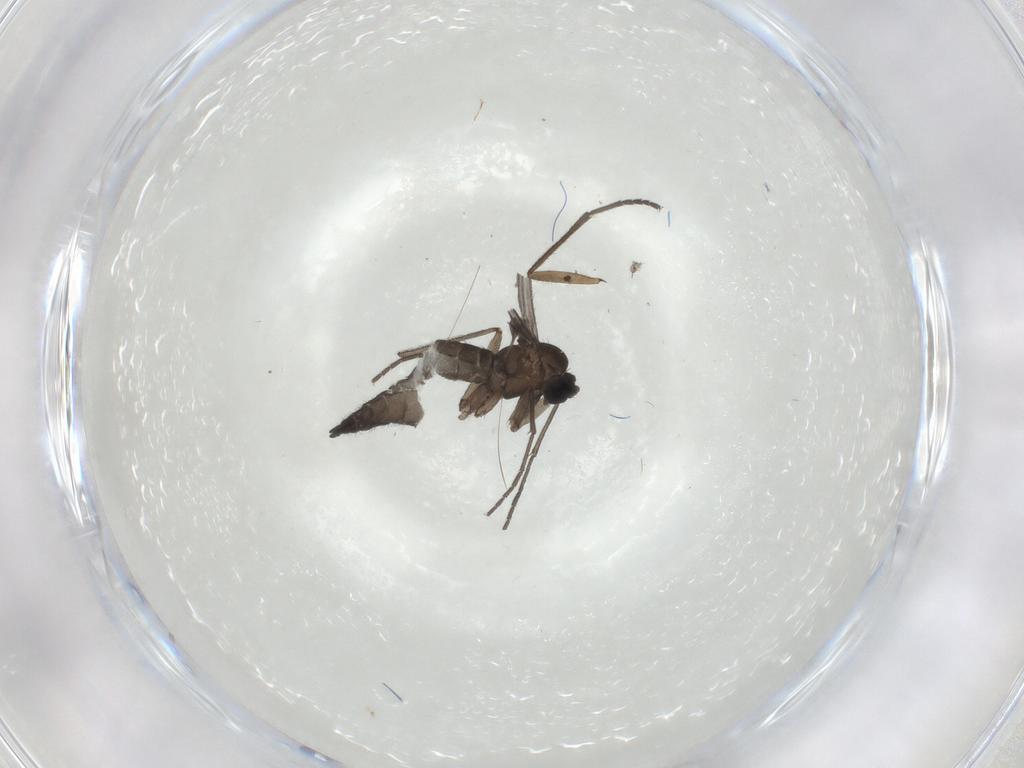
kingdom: Animalia
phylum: Arthropoda
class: Insecta
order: Diptera
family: Sciaridae
